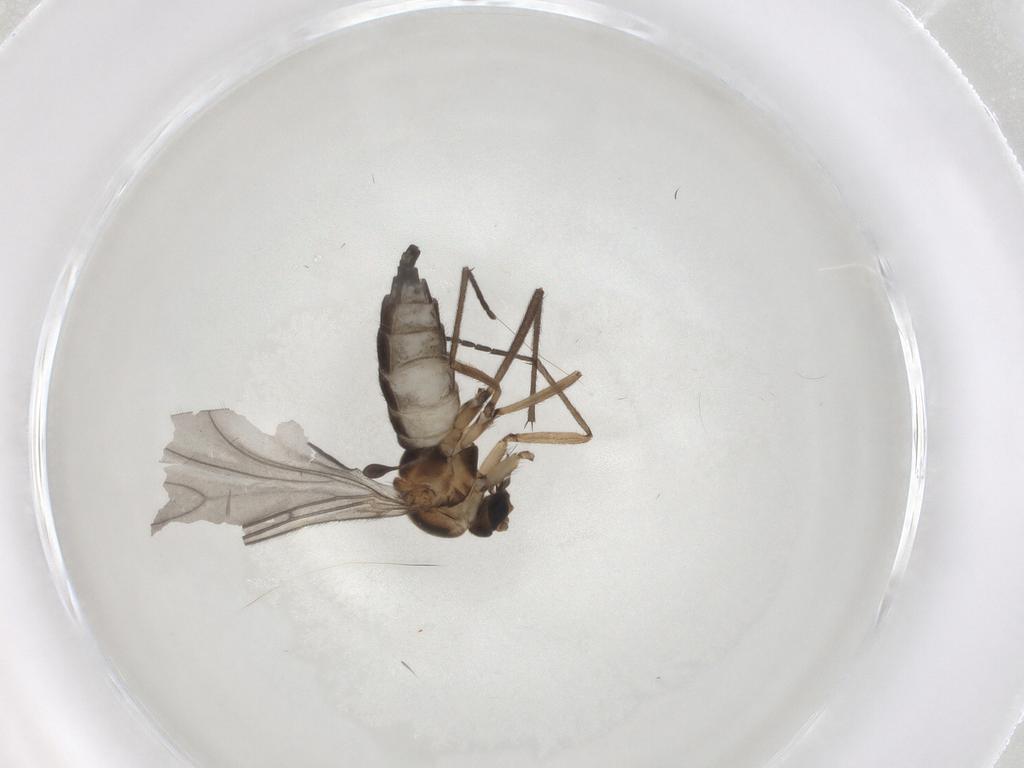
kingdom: Animalia
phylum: Arthropoda
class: Insecta
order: Diptera
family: Sciaridae
